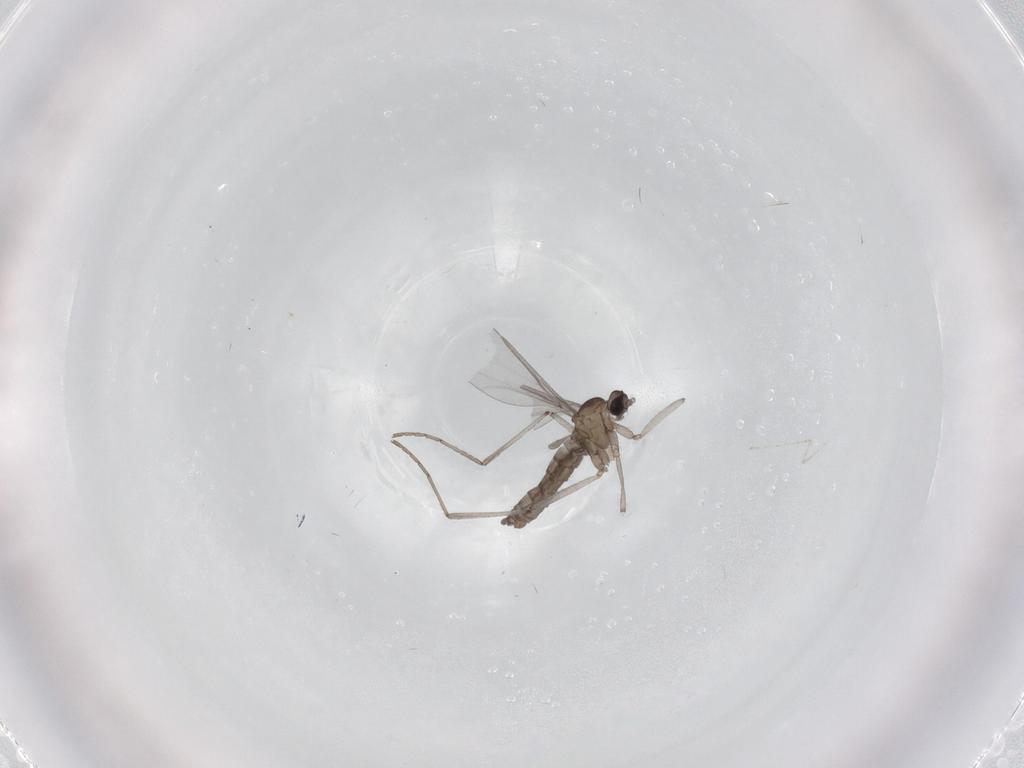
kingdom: Animalia
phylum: Arthropoda
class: Insecta
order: Diptera
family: Cecidomyiidae
